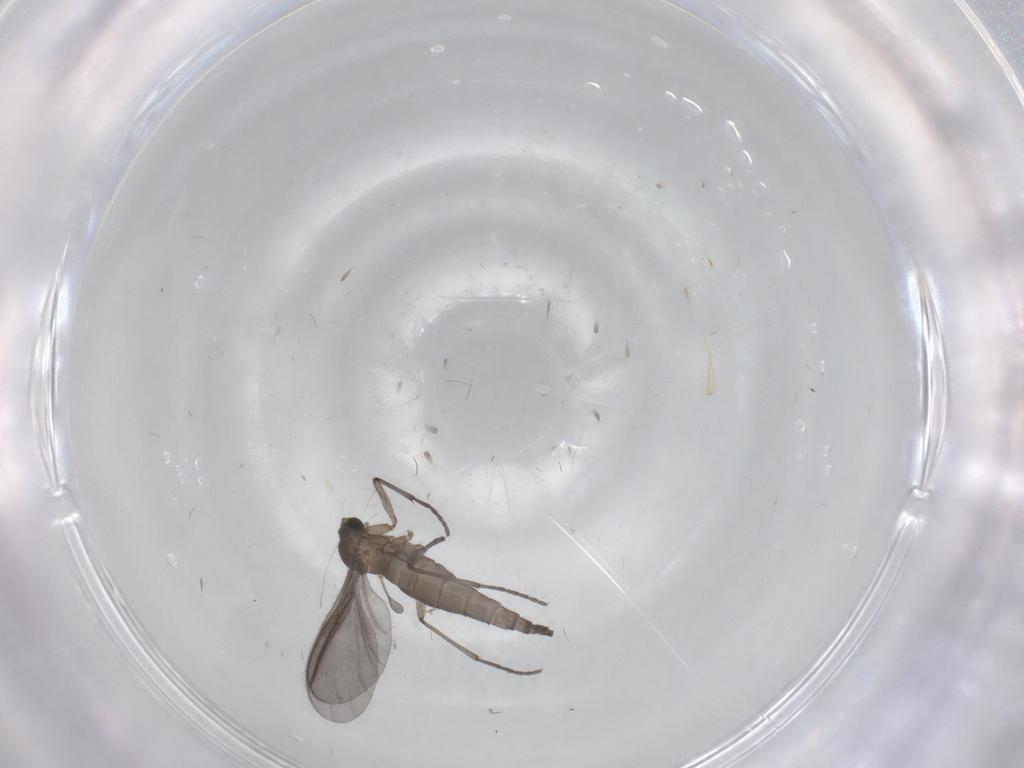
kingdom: Animalia
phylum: Arthropoda
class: Insecta
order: Diptera
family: Sciaridae
